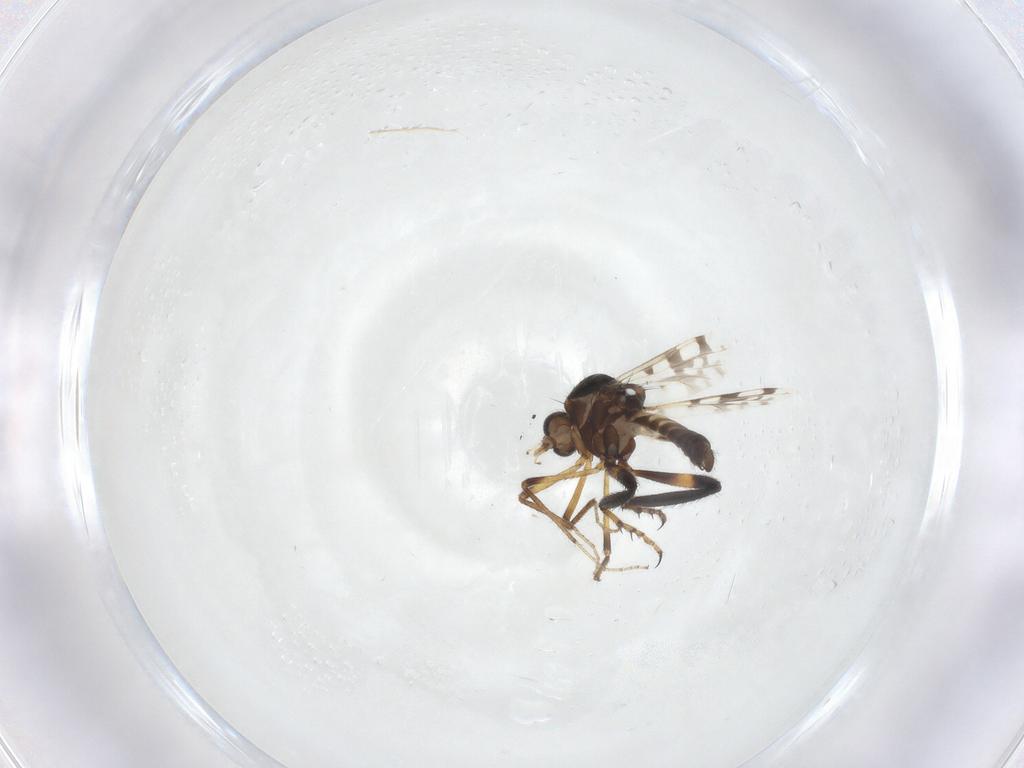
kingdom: Animalia
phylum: Arthropoda
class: Insecta
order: Diptera
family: Ceratopogonidae
